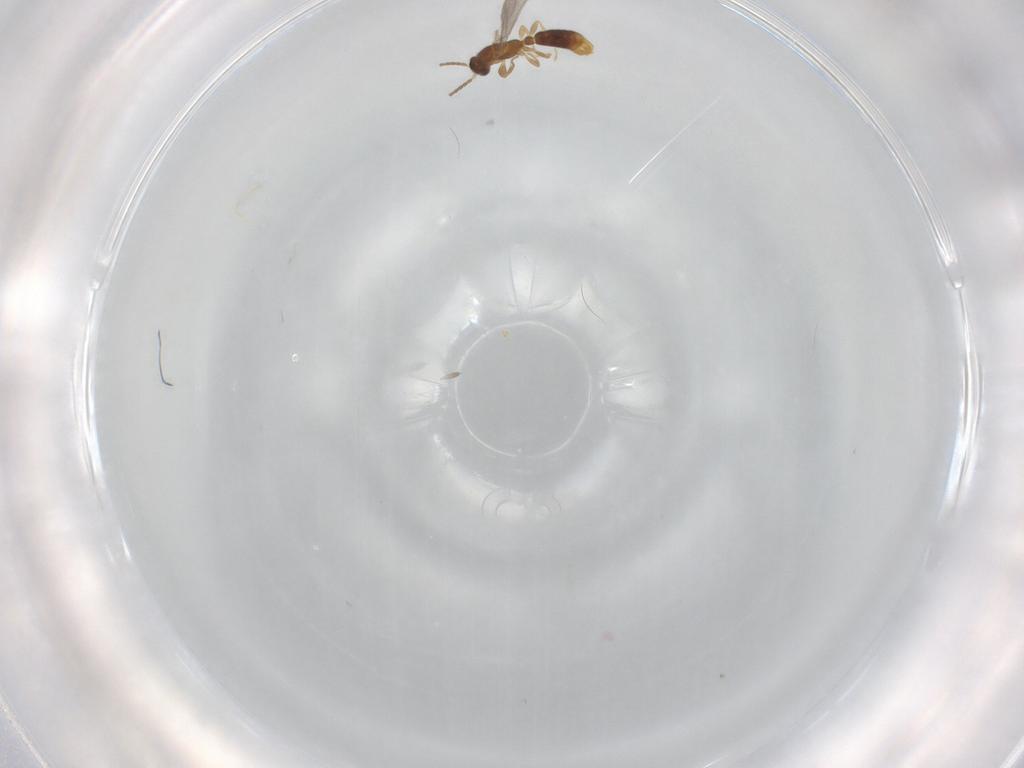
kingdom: Animalia
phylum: Arthropoda
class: Insecta
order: Hymenoptera
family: Formicidae
